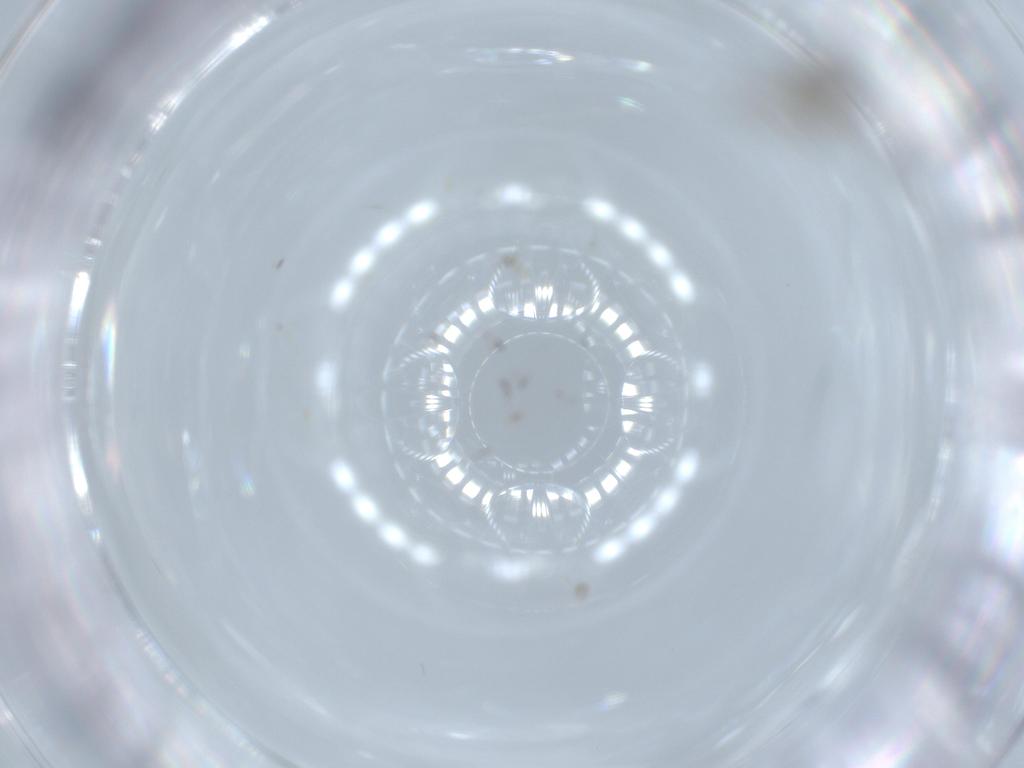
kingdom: Animalia
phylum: Arthropoda
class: Insecta
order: Diptera
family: Psychodidae
